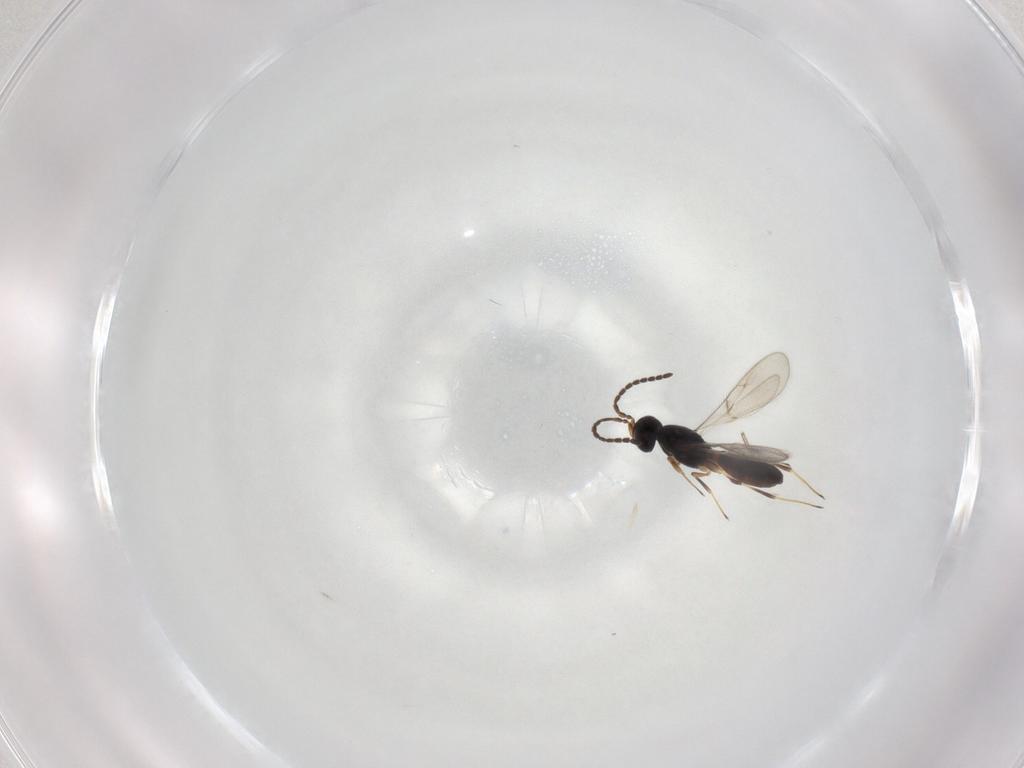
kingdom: Animalia
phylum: Arthropoda
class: Insecta
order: Hymenoptera
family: Scelionidae
